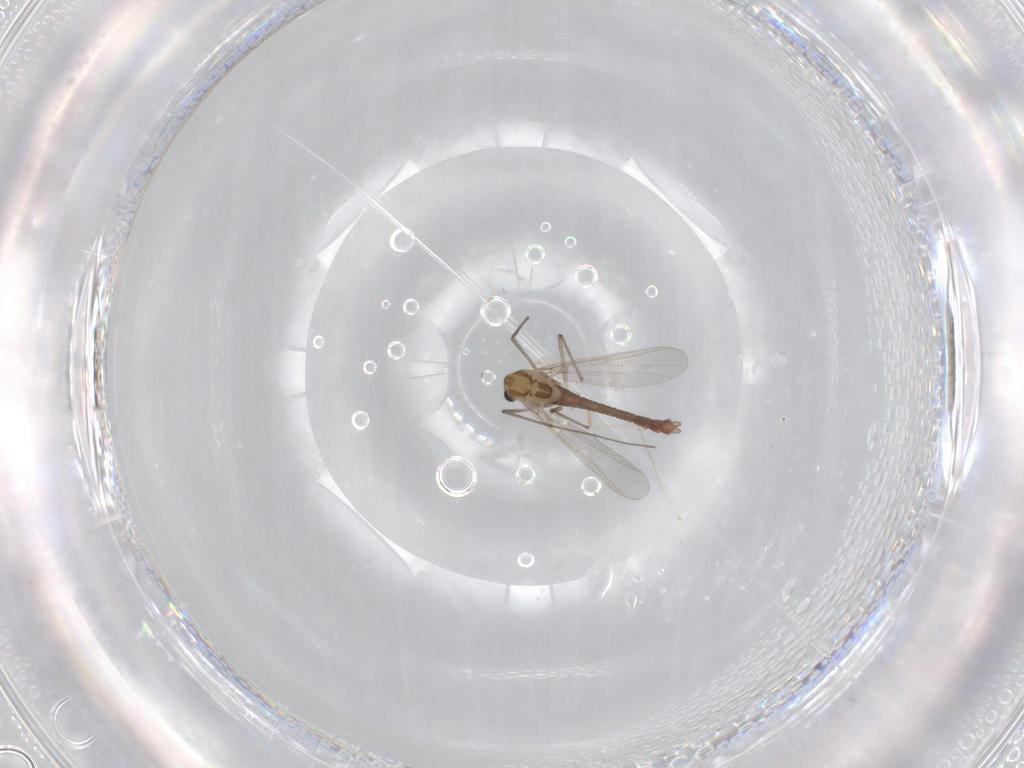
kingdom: Animalia
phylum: Arthropoda
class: Insecta
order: Diptera
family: Chironomidae
